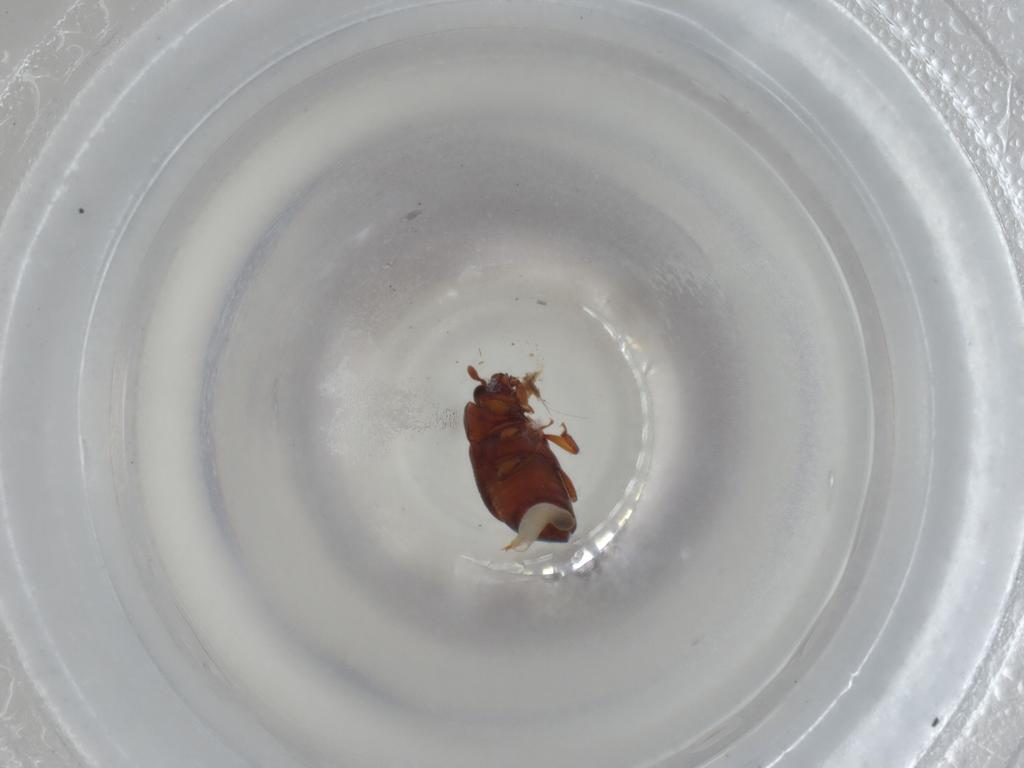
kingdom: Animalia
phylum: Arthropoda
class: Insecta
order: Coleoptera
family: Nitidulidae
